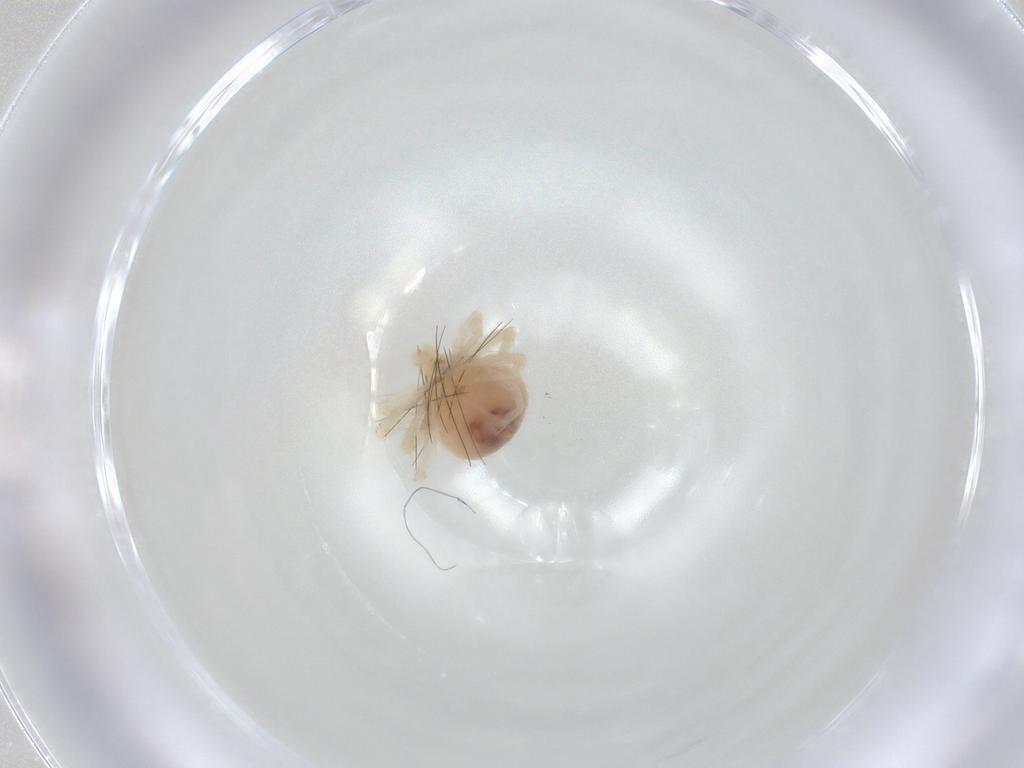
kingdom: Animalia
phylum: Arthropoda
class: Arachnida
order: Trombidiformes
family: Anystidae
